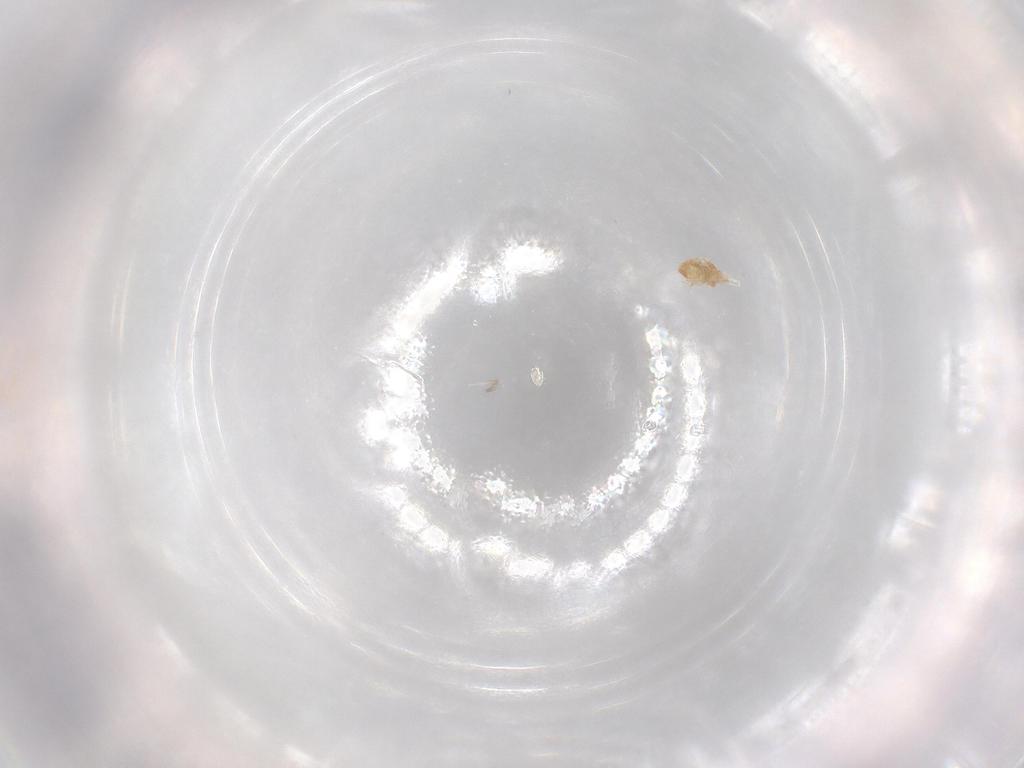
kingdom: Animalia
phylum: Arthropoda
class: Arachnida
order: Trombidiformes
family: Eupodidae
